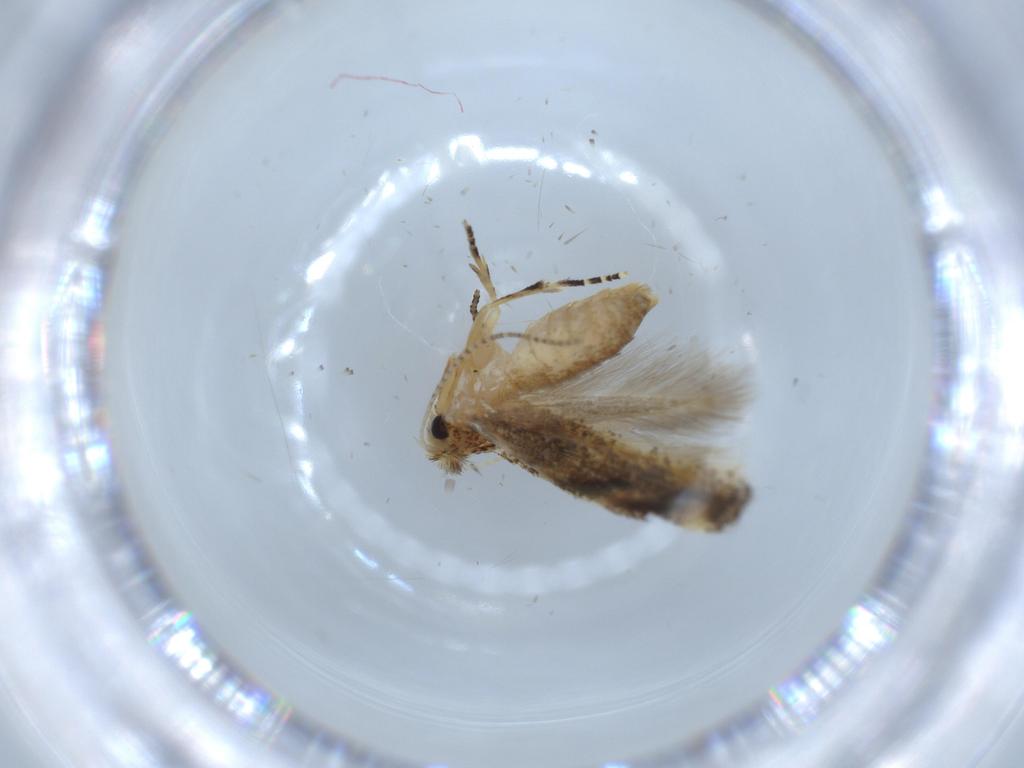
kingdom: Animalia
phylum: Arthropoda
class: Insecta
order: Lepidoptera
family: Bucculatricidae
